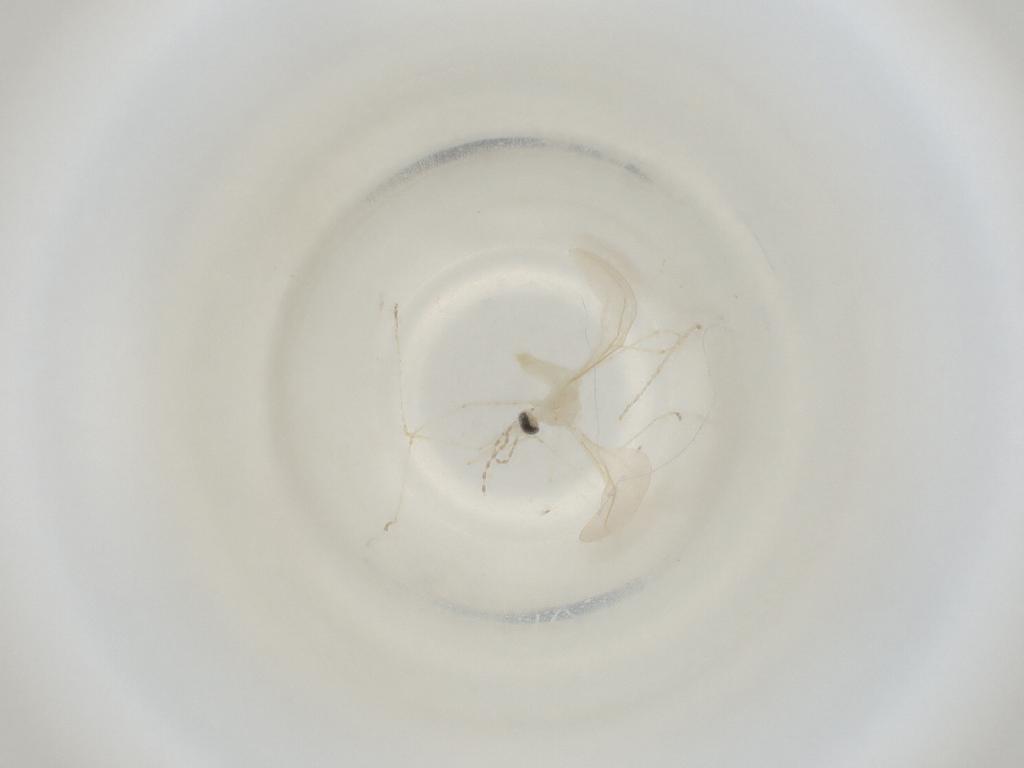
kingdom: Animalia
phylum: Arthropoda
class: Insecta
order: Diptera
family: Cecidomyiidae
